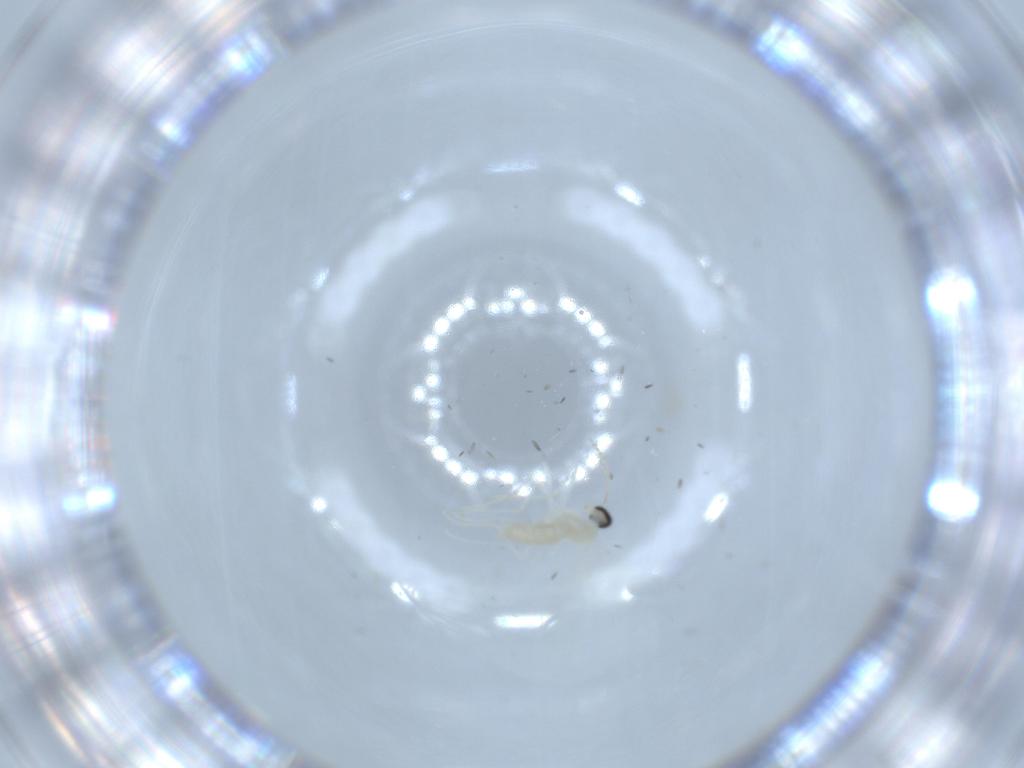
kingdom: Animalia
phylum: Arthropoda
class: Insecta
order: Diptera
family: Cecidomyiidae
